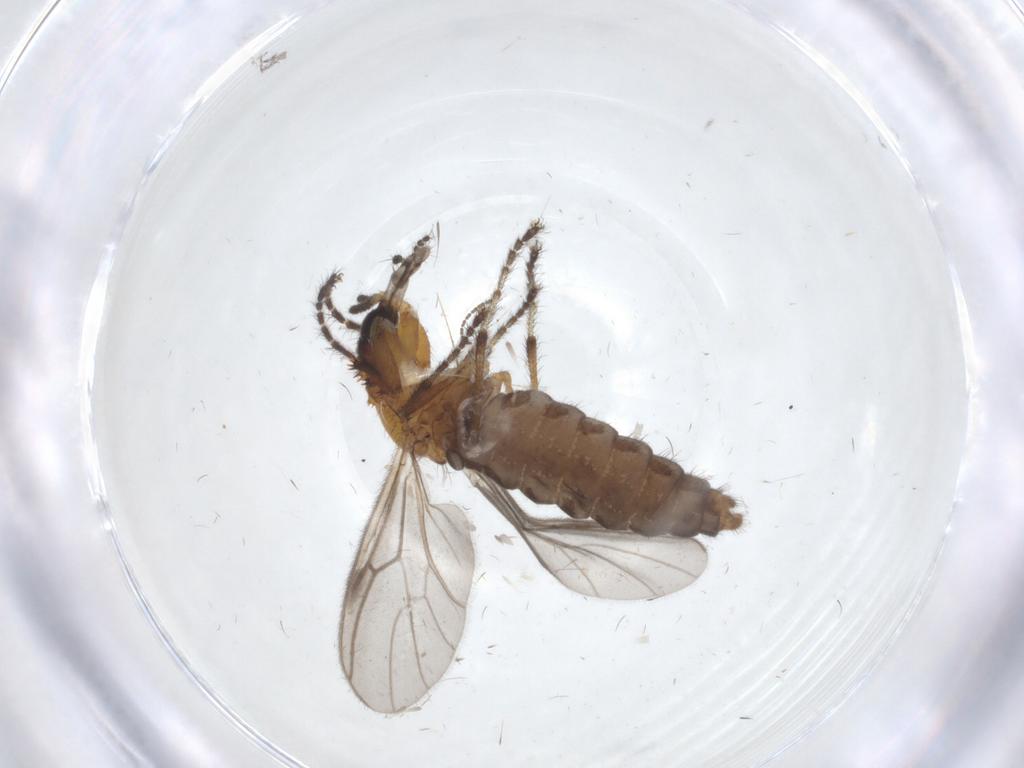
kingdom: Animalia
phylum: Arthropoda
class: Insecta
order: Diptera
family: Bibionidae
